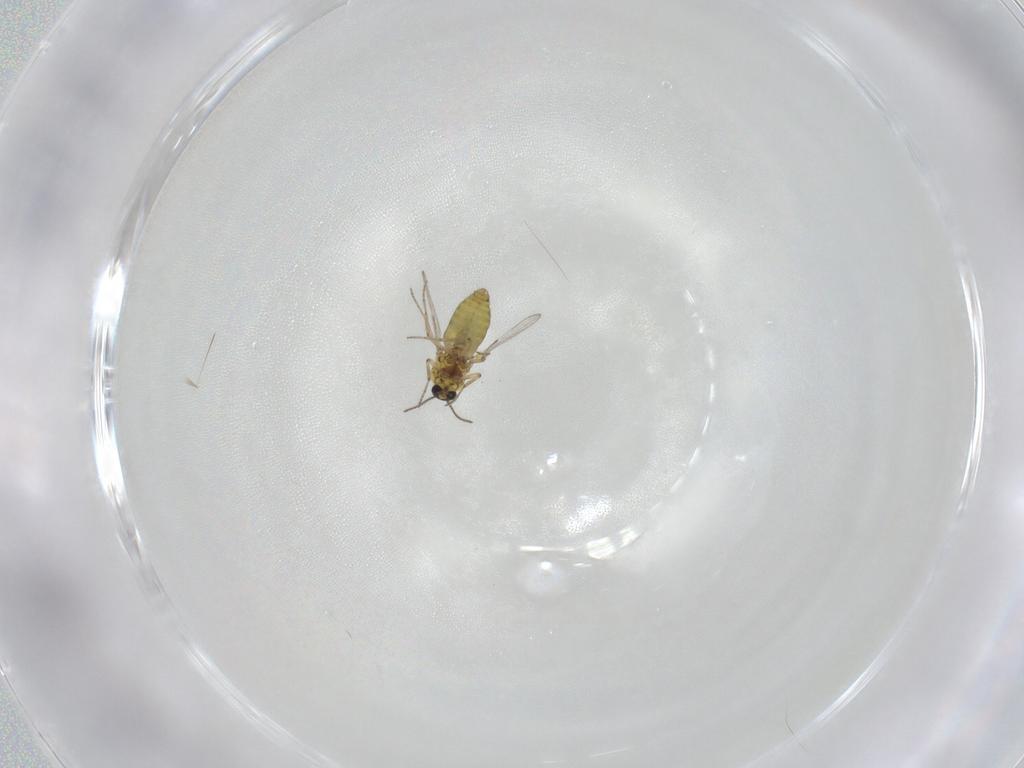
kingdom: Animalia
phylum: Arthropoda
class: Insecta
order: Diptera
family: Ceratopogonidae
